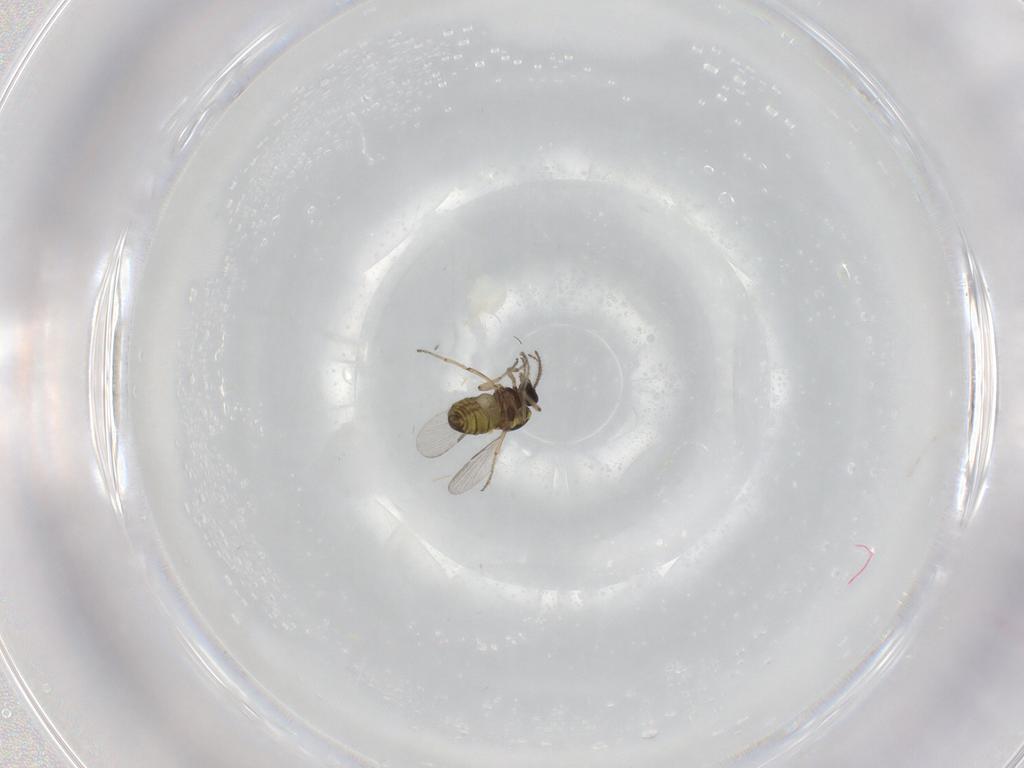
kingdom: Animalia
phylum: Arthropoda
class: Insecta
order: Diptera
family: Ceratopogonidae
